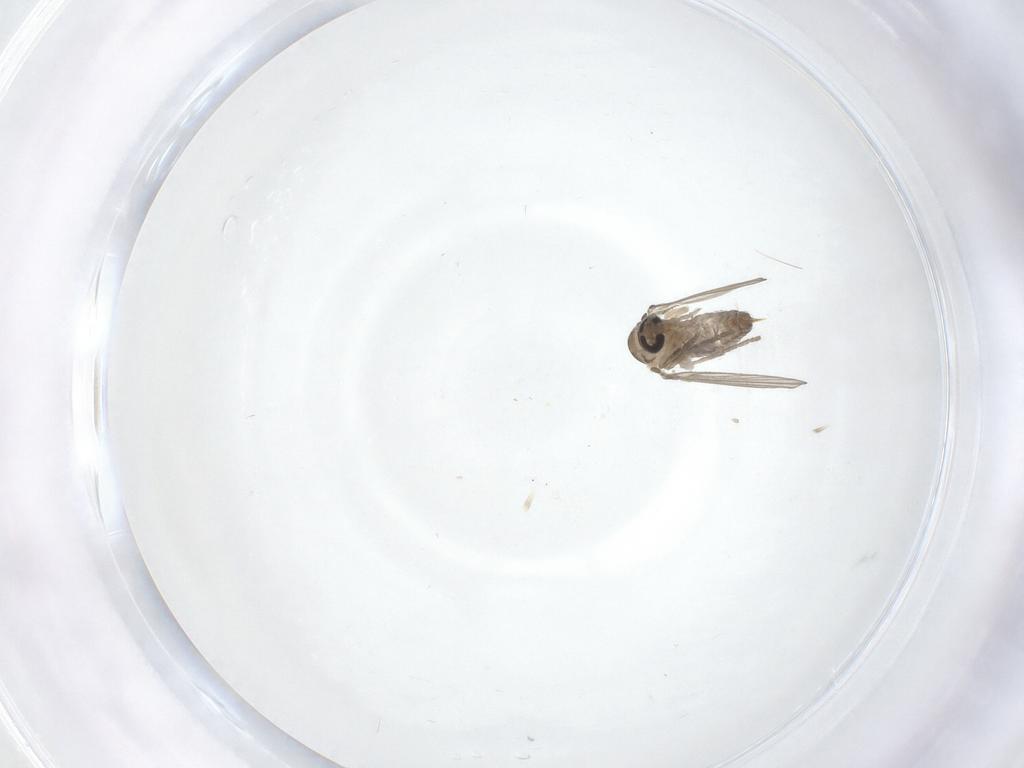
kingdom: Animalia
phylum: Arthropoda
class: Insecta
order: Diptera
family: Psychodidae
